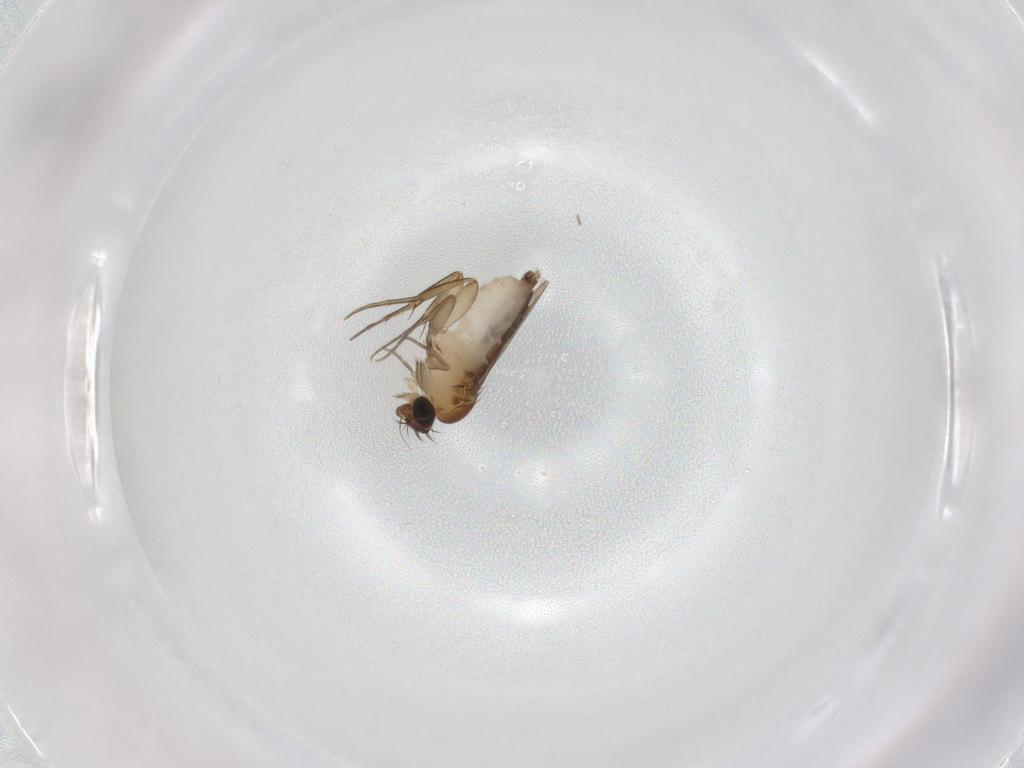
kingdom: Animalia
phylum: Arthropoda
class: Insecta
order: Diptera
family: Phoridae
